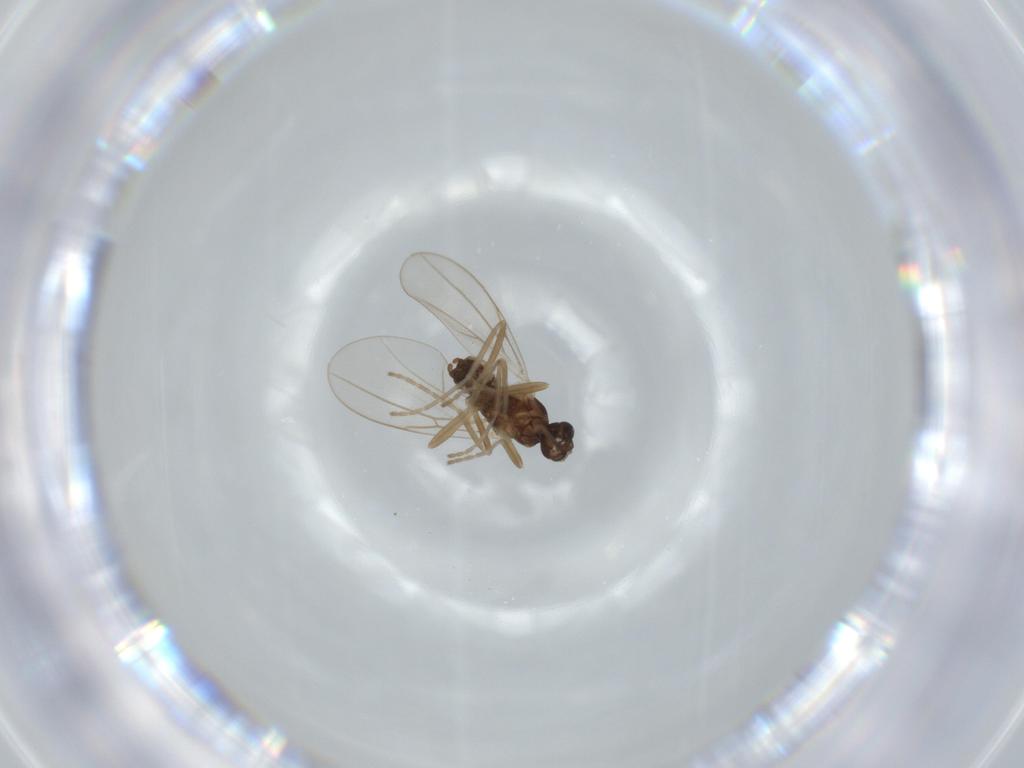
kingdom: Animalia
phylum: Arthropoda
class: Insecta
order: Diptera
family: Cecidomyiidae
